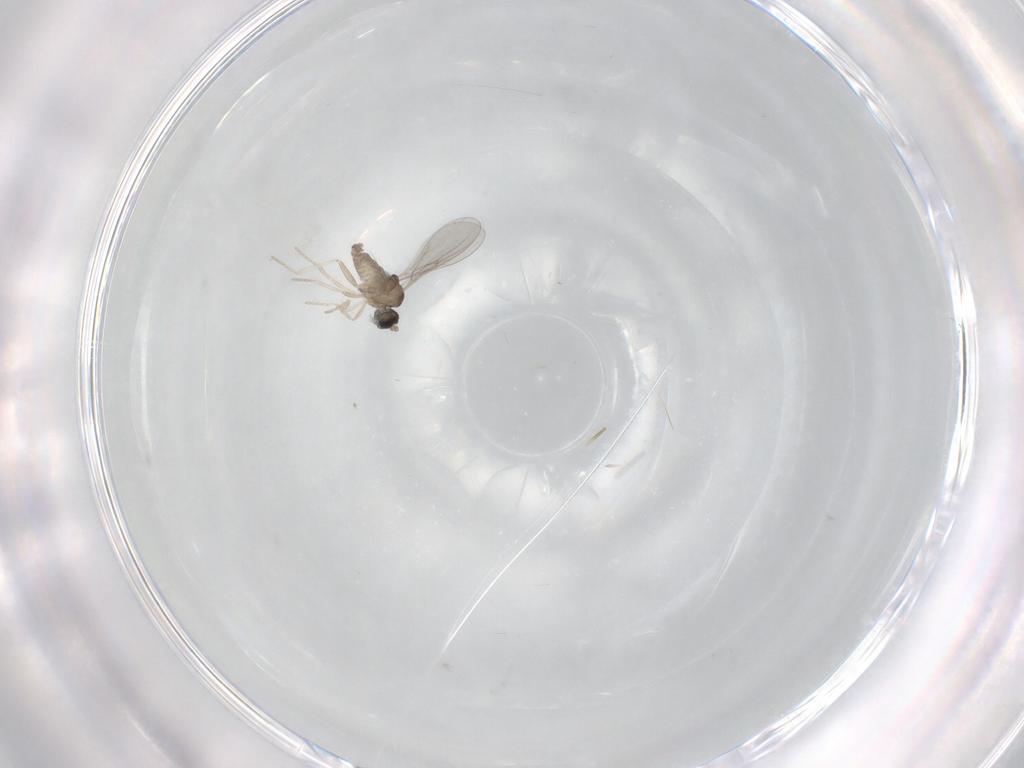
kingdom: Animalia
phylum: Arthropoda
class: Insecta
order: Diptera
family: Cecidomyiidae
